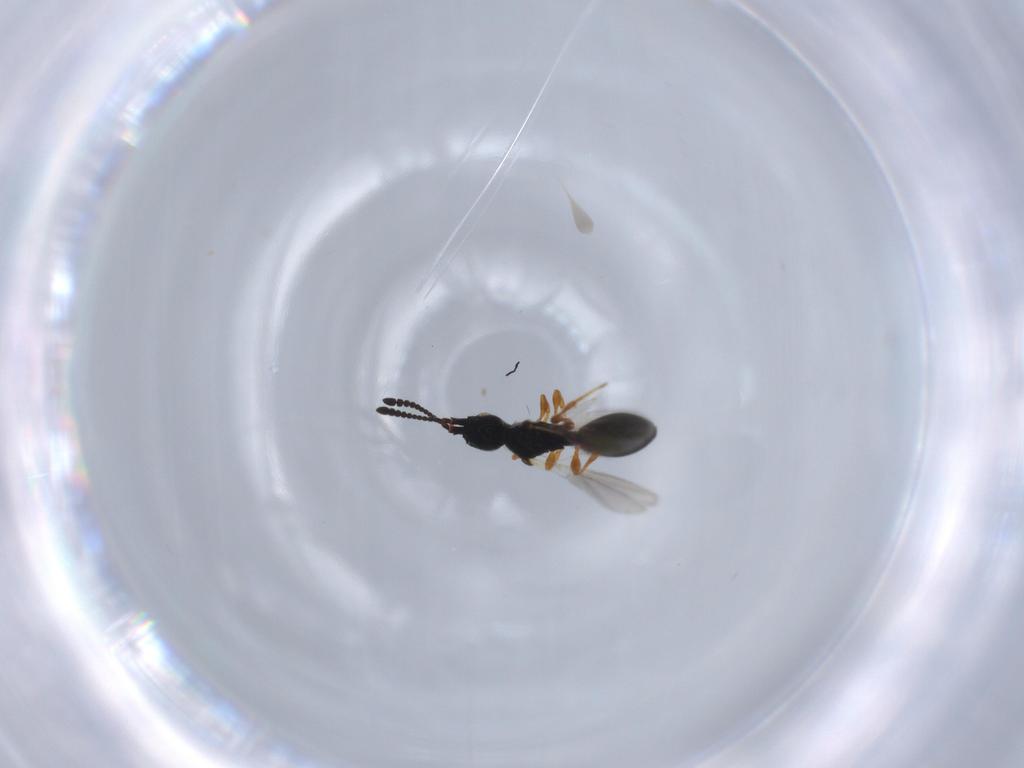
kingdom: Animalia
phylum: Arthropoda
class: Insecta
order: Hymenoptera
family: Diapriidae
